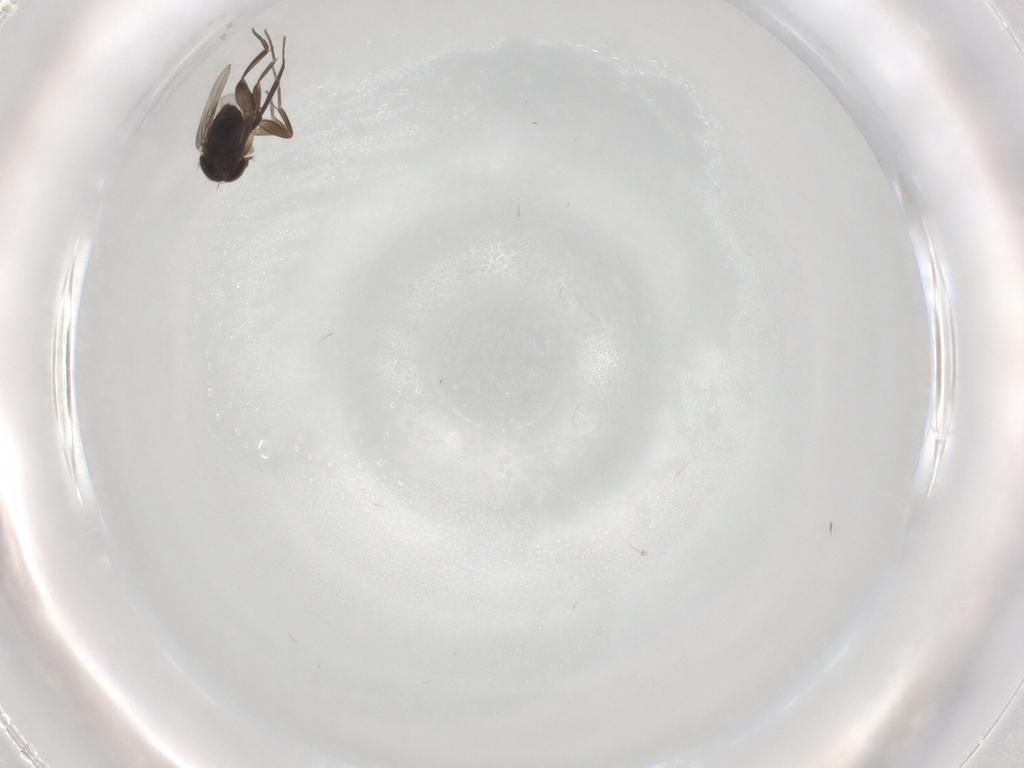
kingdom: Animalia
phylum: Arthropoda
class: Insecta
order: Diptera
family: Phoridae
